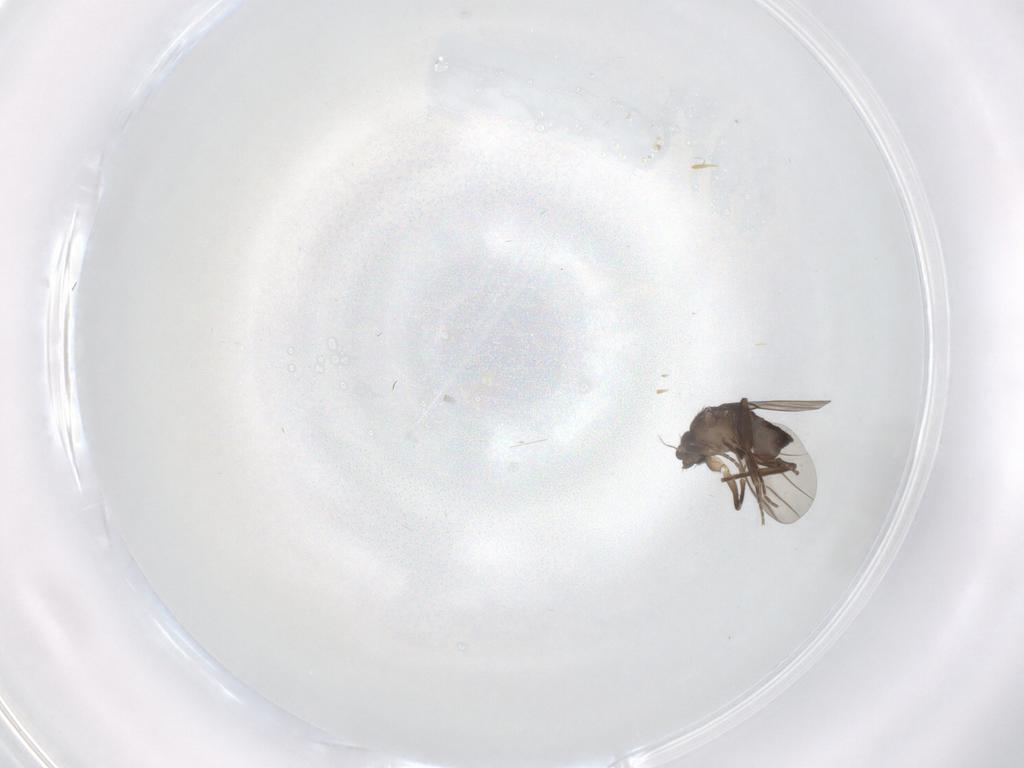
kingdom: Animalia
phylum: Arthropoda
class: Insecta
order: Diptera
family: Phoridae
